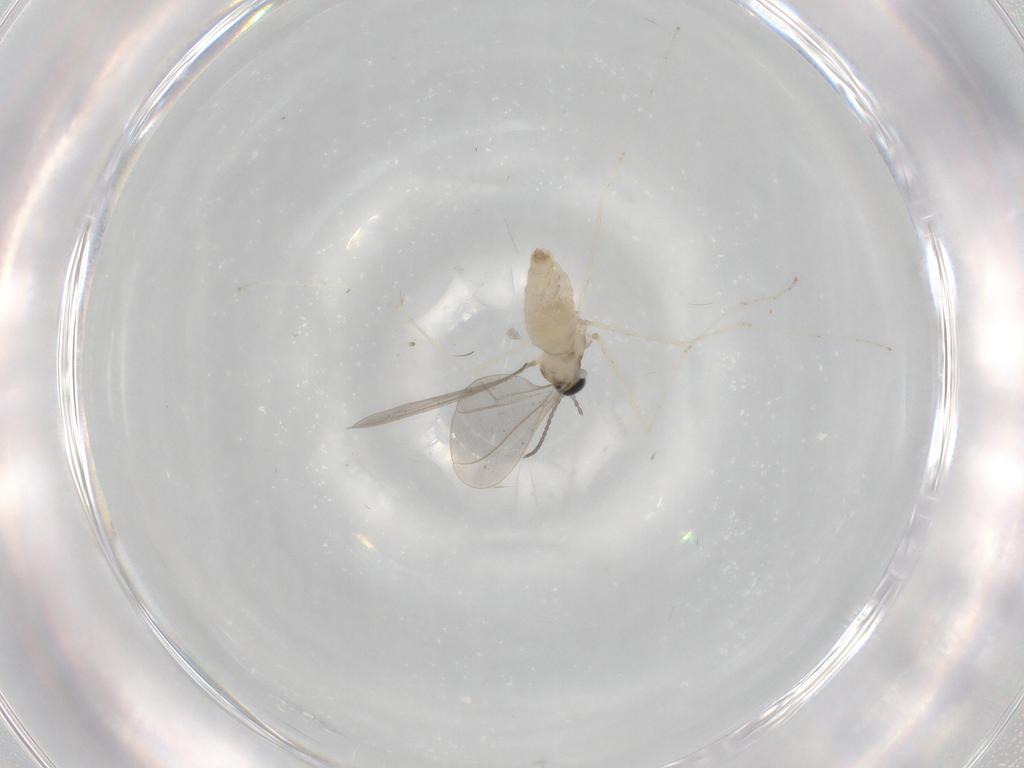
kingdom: Animalia
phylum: Arthropoda
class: Insecta
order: Diptera
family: Cecidomyiidae
